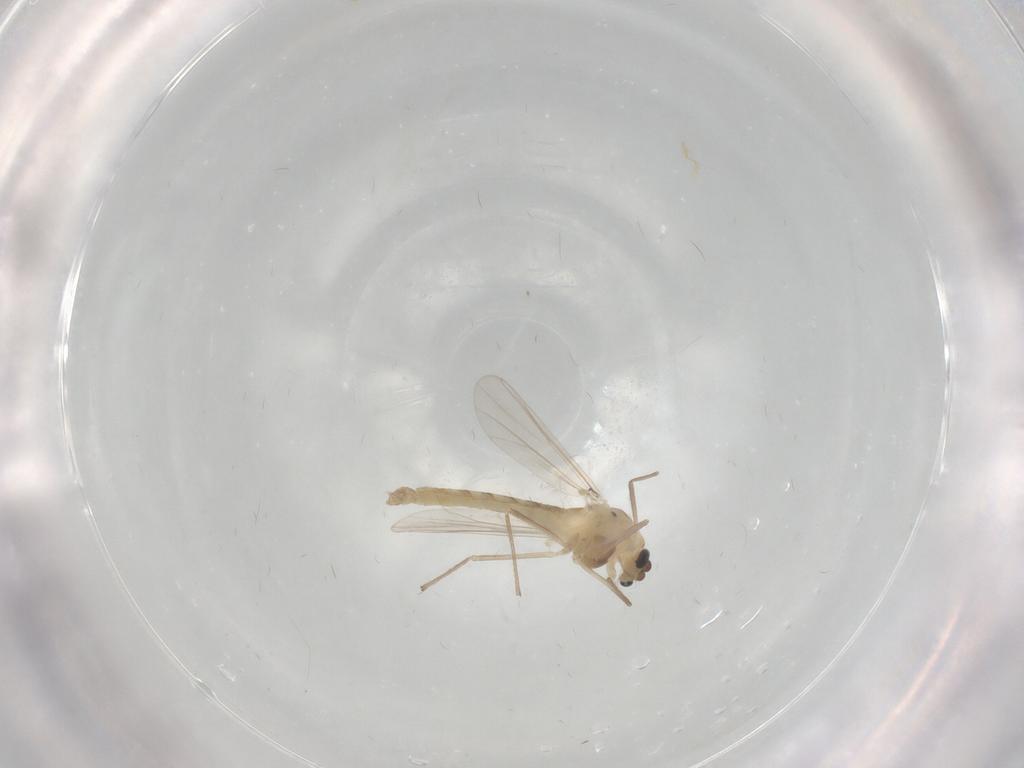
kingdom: Animalia
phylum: Arthropoda
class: Insecta
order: Diptera
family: Chironomidae
